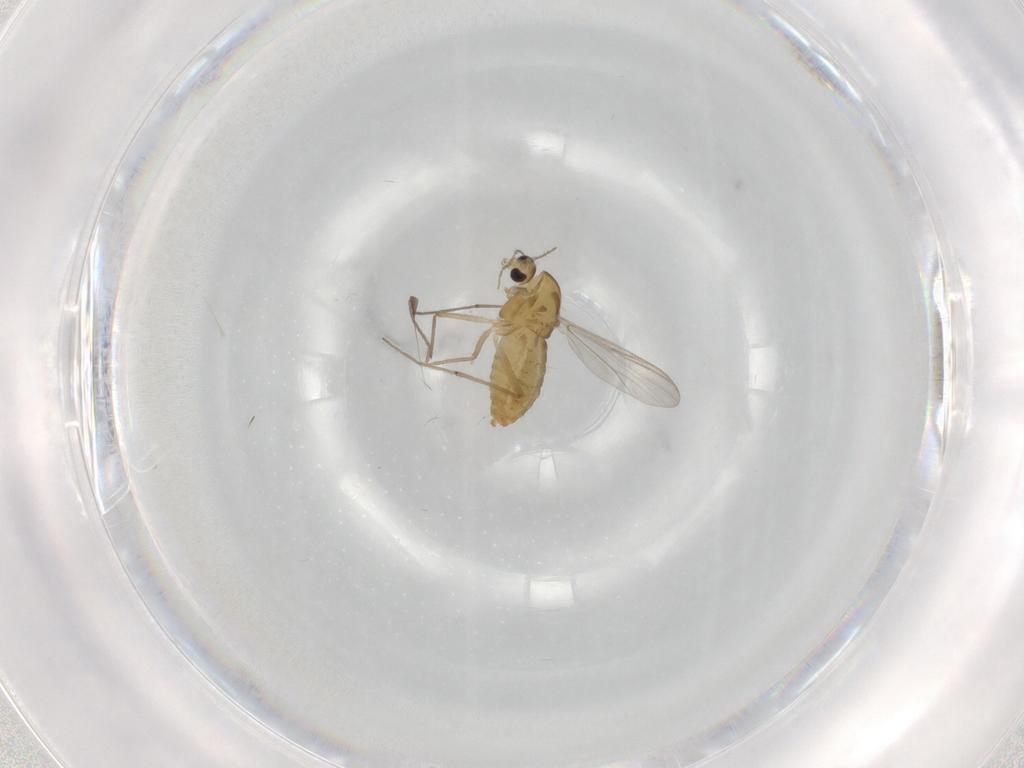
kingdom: Animalia
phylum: Arthropoda
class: Insecta
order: Diptera
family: Chironomidae
